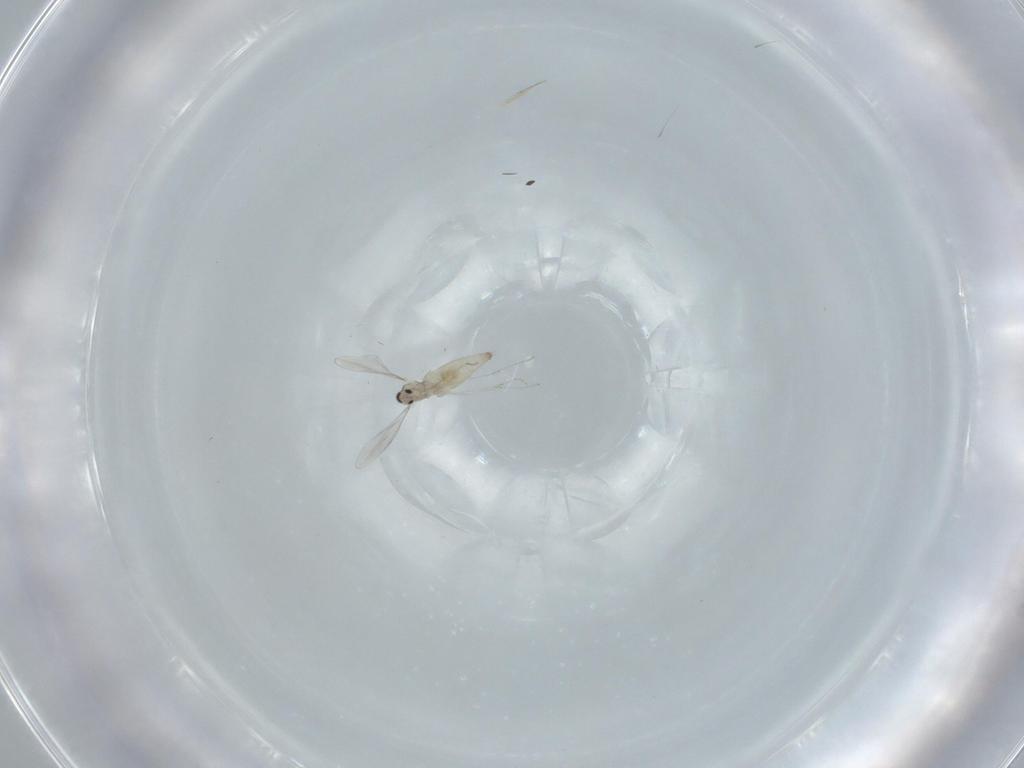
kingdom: Animalia
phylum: Arthropoda
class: Insecta
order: Diptera
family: Cecidomyiidae
